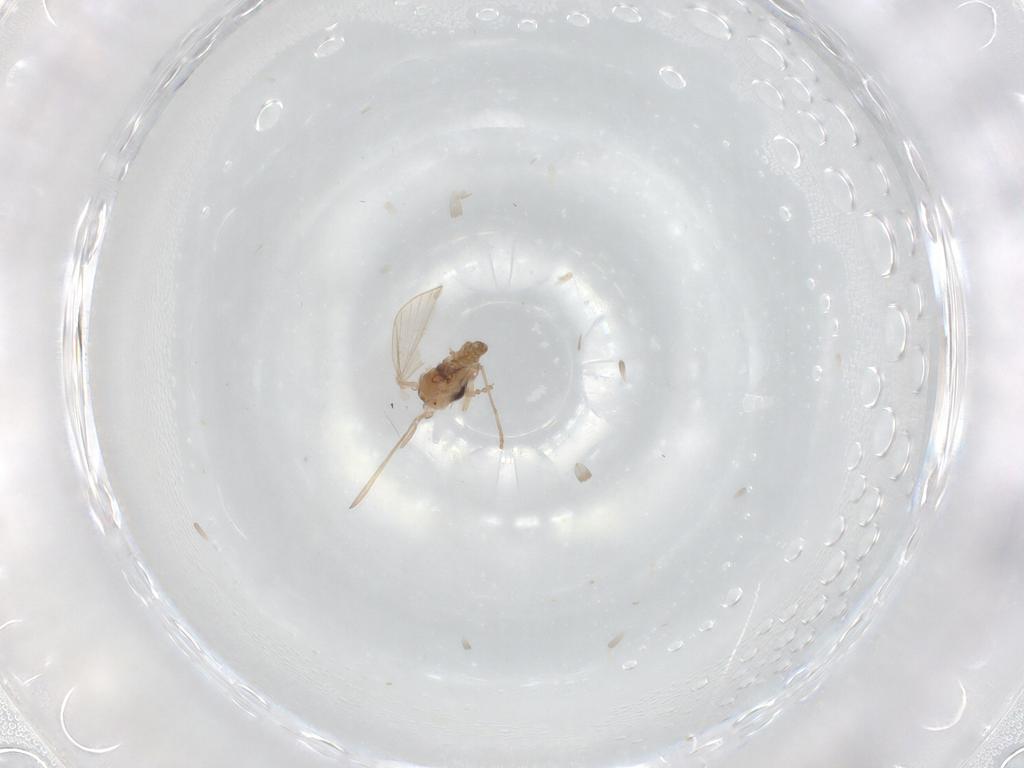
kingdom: Animalia
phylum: Arthropoda
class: Insecta
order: Diptera
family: Psychodidae
